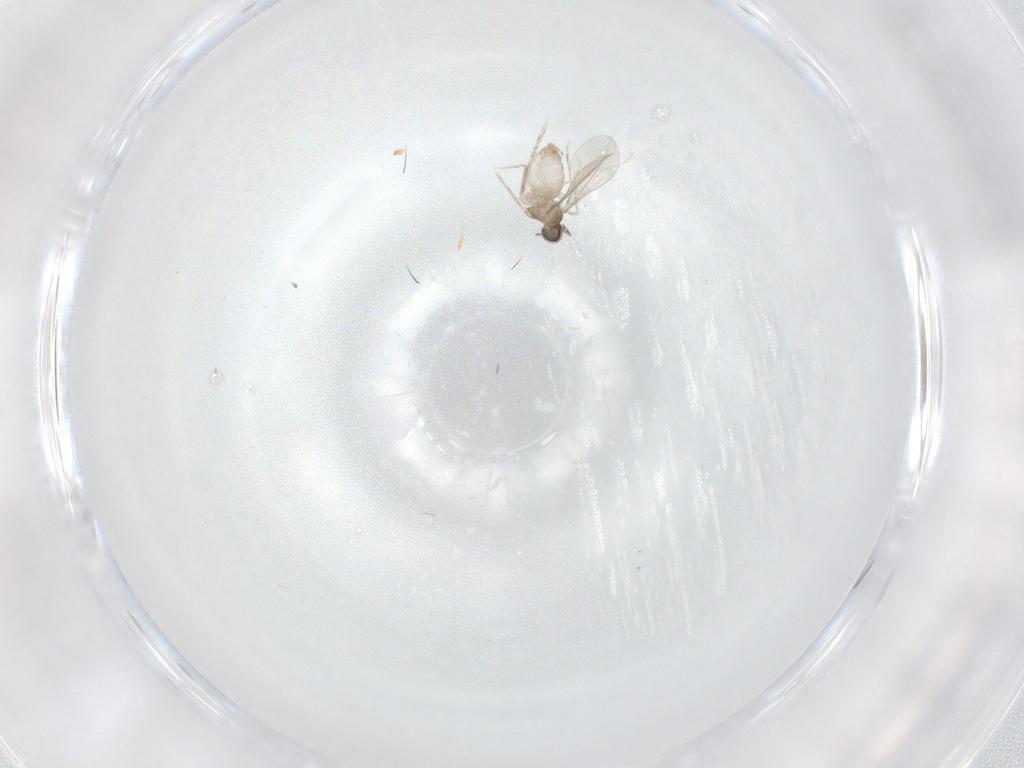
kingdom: Animalia
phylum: Arthropoda
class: Insecta
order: Diptera
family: Cecidomyiidae
